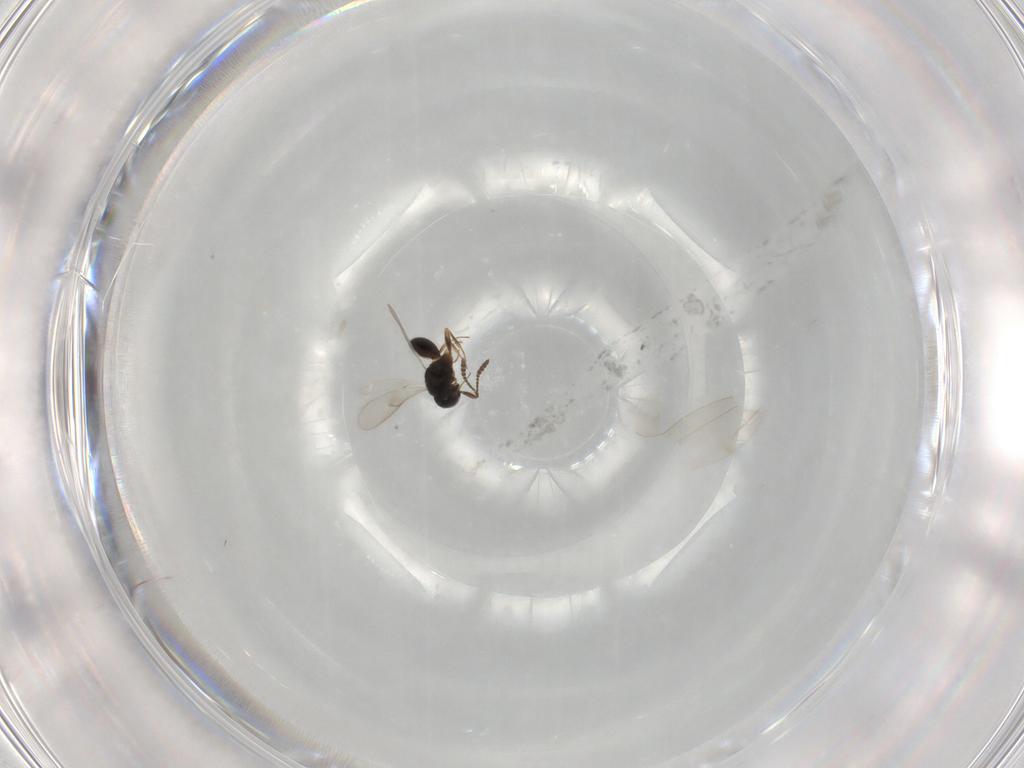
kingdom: Animalia
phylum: Arthropoda
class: Insecta
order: Hymenoptera
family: Scelionidae
